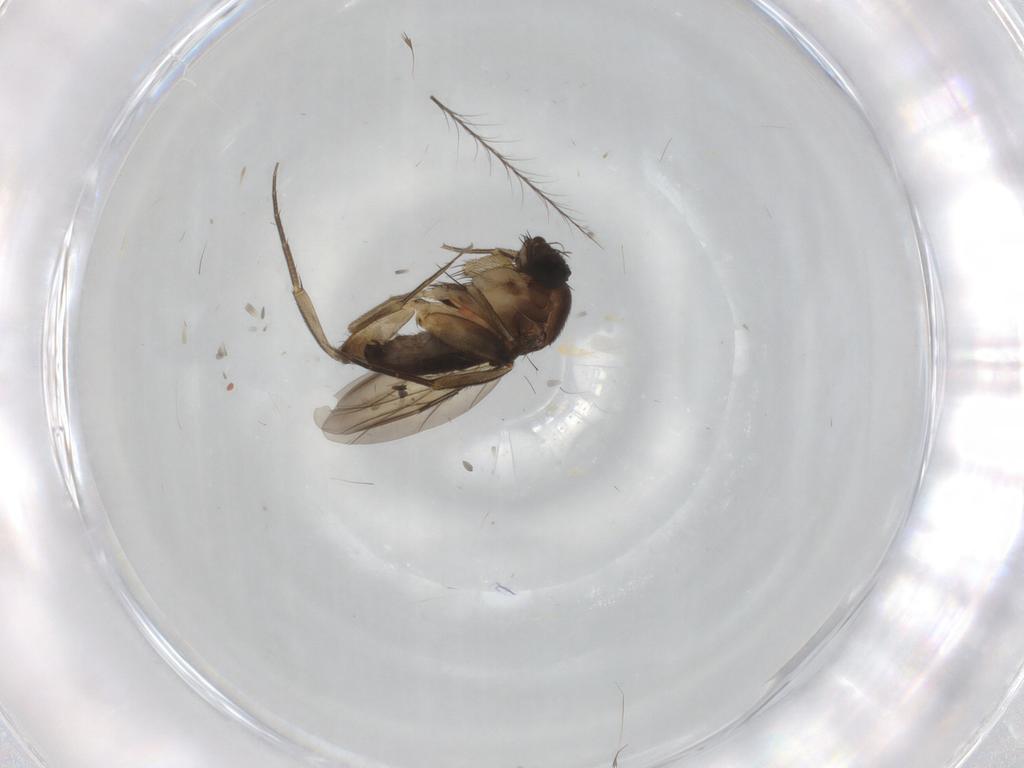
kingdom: Animalia
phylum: Arthropoda
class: Insecta
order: Diptera
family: Phoridae
